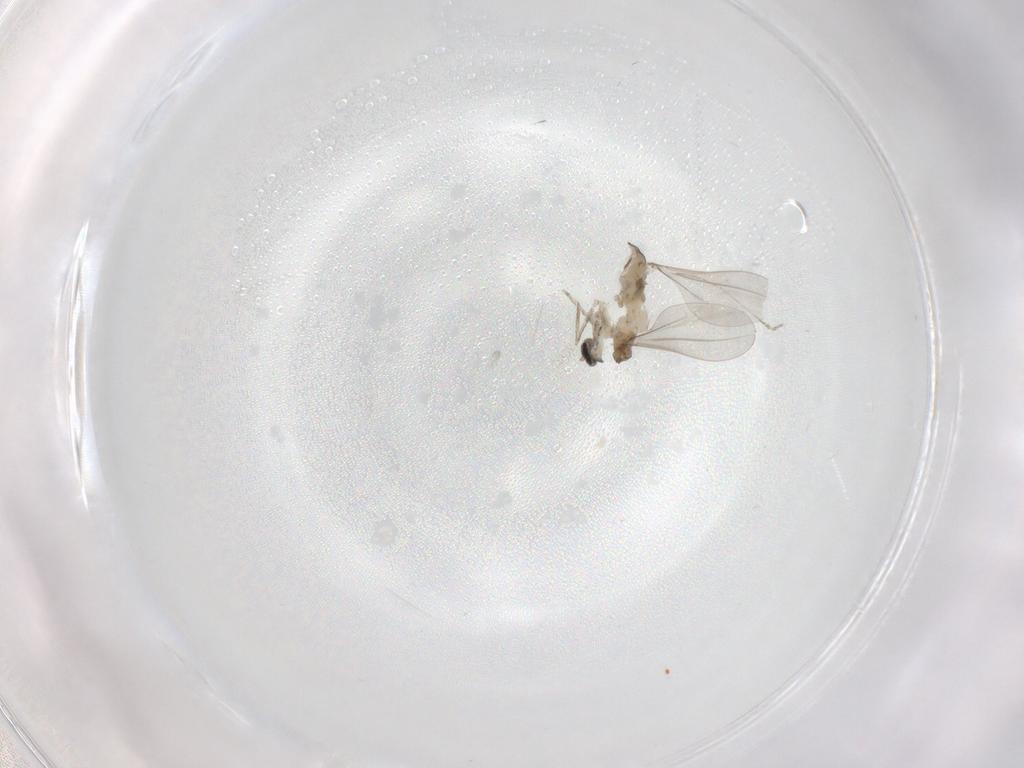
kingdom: Animalia
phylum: Arthropoda
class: Insecta
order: Diptera
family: Cecidomyiidae
